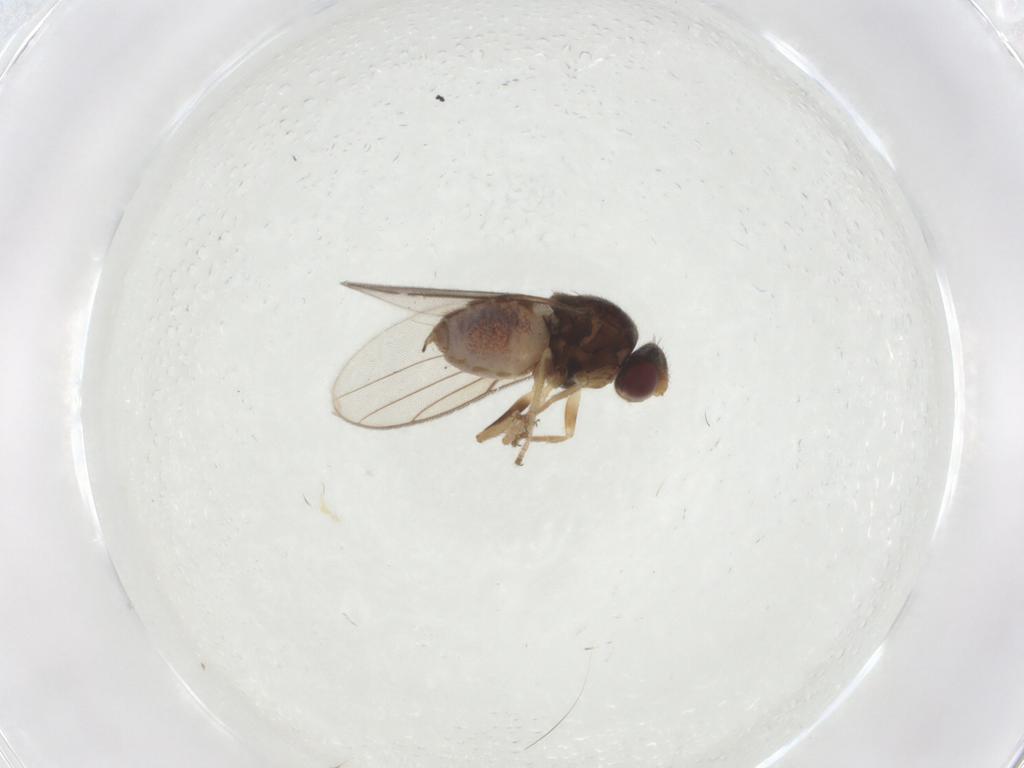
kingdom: Animalia
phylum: Arthropoda
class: Insecta
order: Diptera
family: Chloropidae
